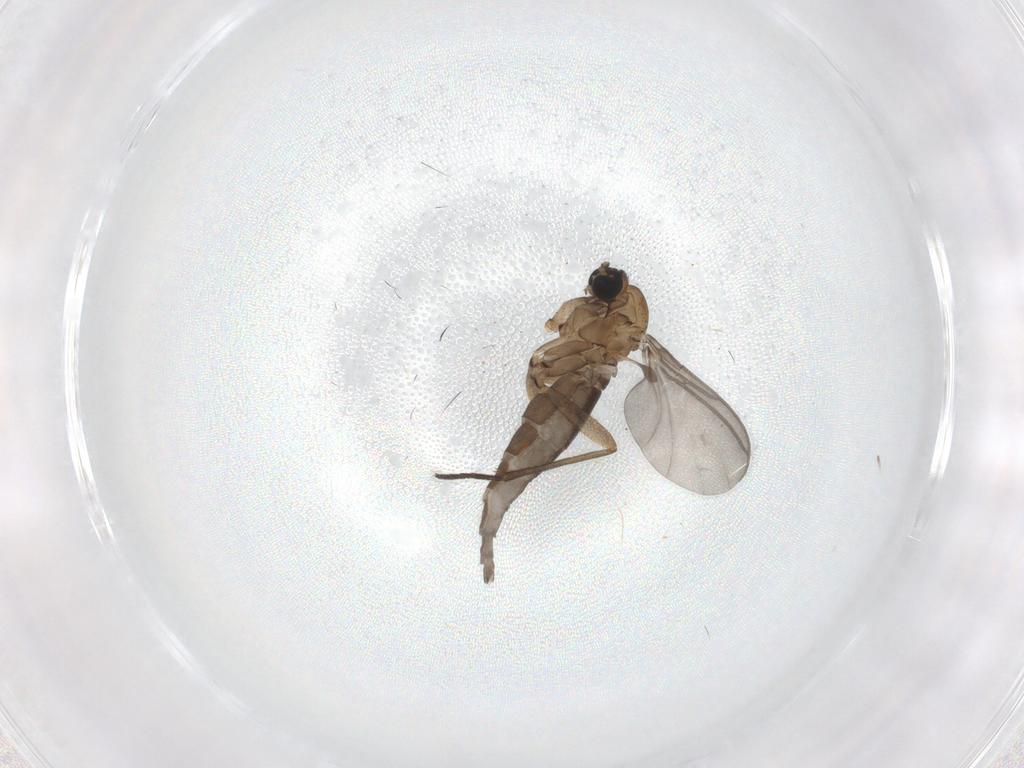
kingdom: Animalia
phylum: Arthropoda
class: Insecta
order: Diptera
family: Sciaridae
